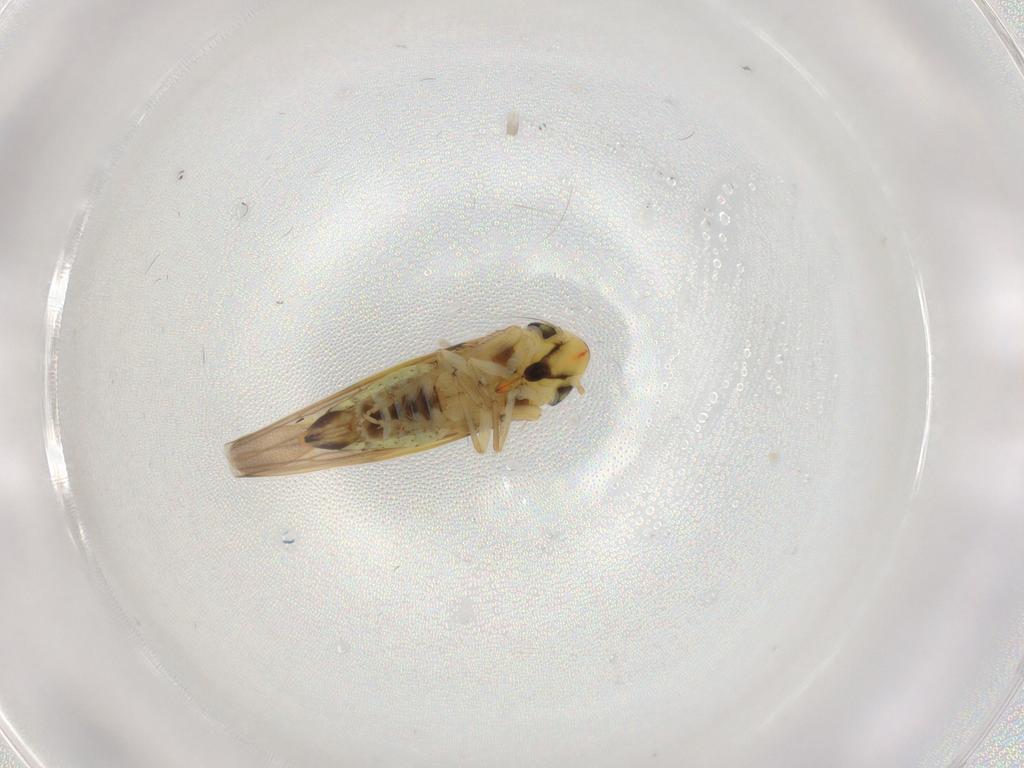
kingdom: Animalia
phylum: Arthropoda
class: Insecta
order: Hemiptera
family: Cicadellidae
